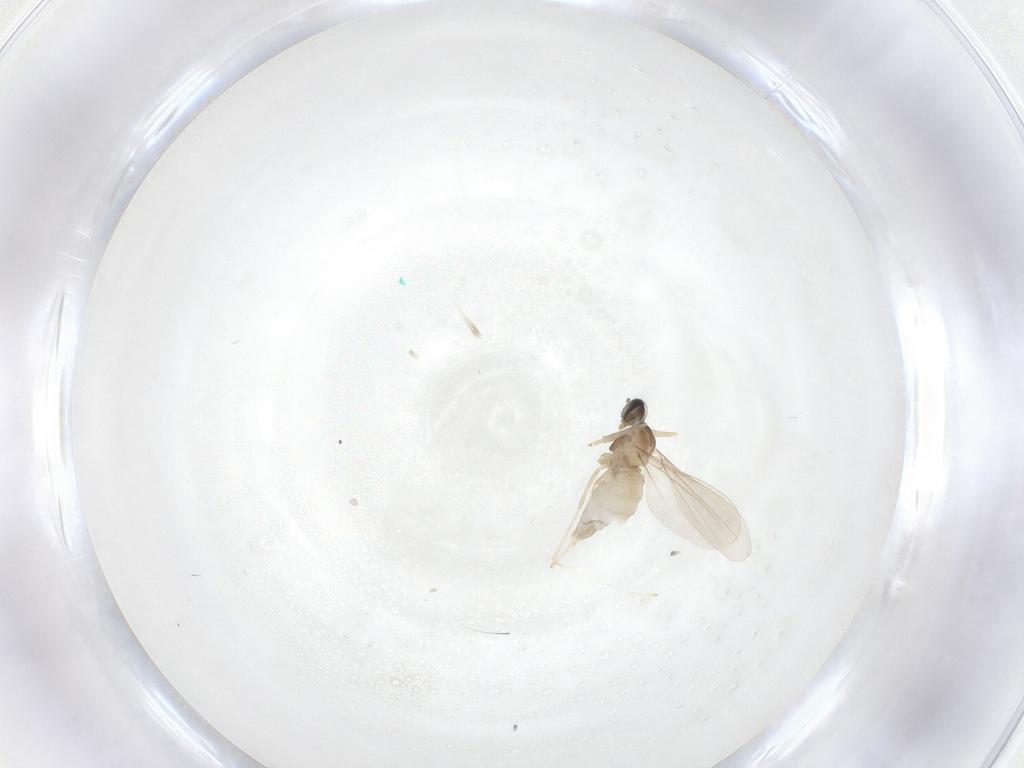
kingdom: Animalia
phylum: Arthropoda
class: Insecta
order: Diptera
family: Cecidomyiidae
